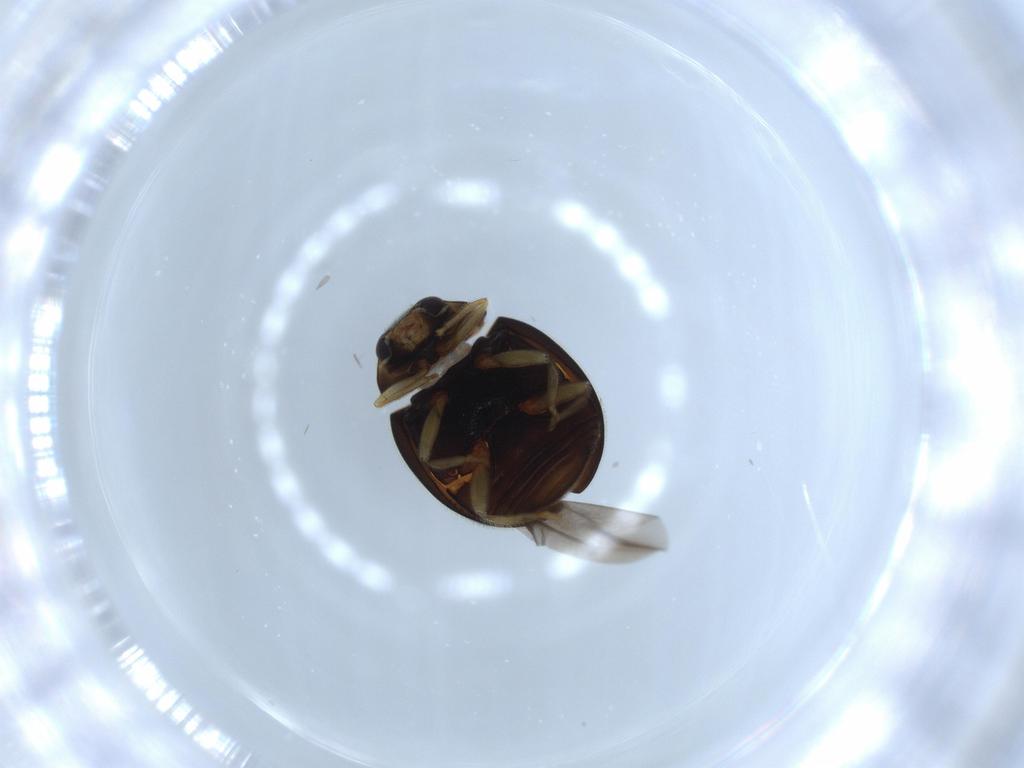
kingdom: Animalia
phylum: Arthropoda
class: Insecta
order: Coleoptera
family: Coccinellidae
